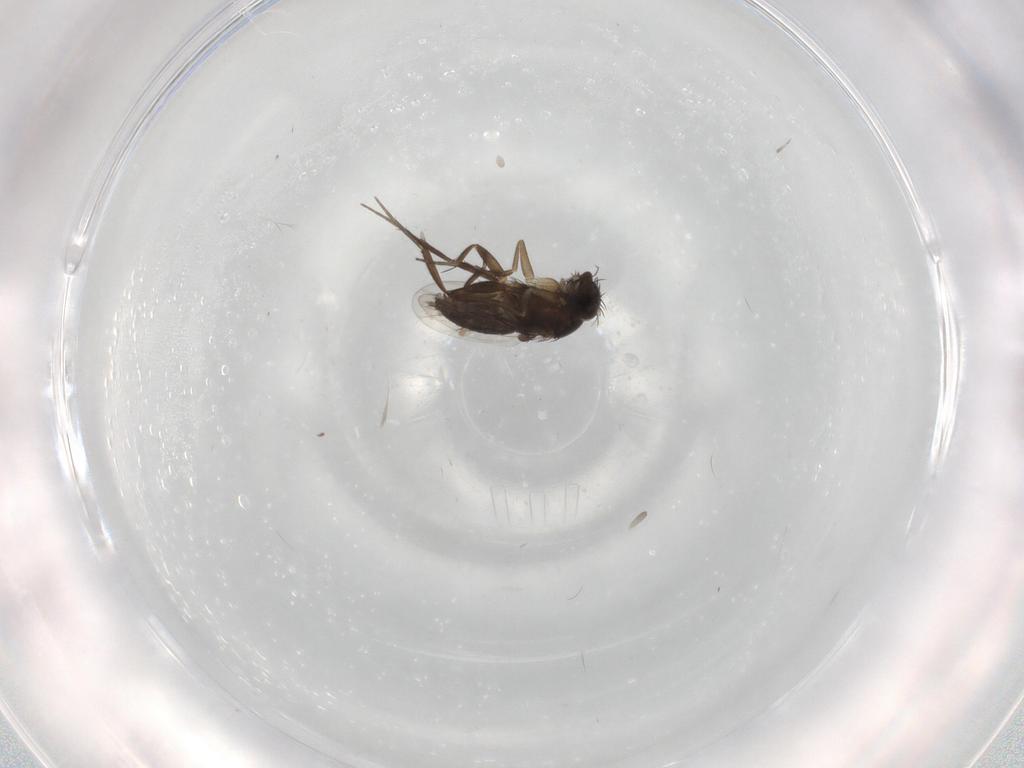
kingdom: Animalia
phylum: Arthropoda
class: Insecta
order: Diptera
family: Phoridae
